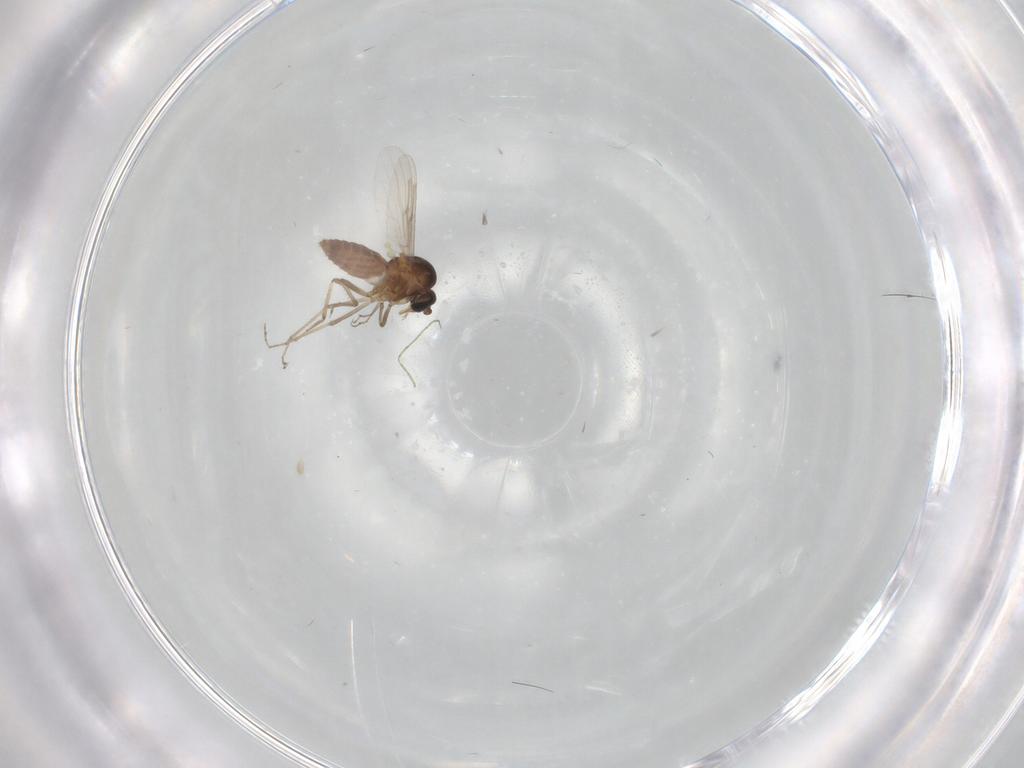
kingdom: Animalia
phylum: Arthropoda
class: Insecta
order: Diptera
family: Ceratopogonidae
